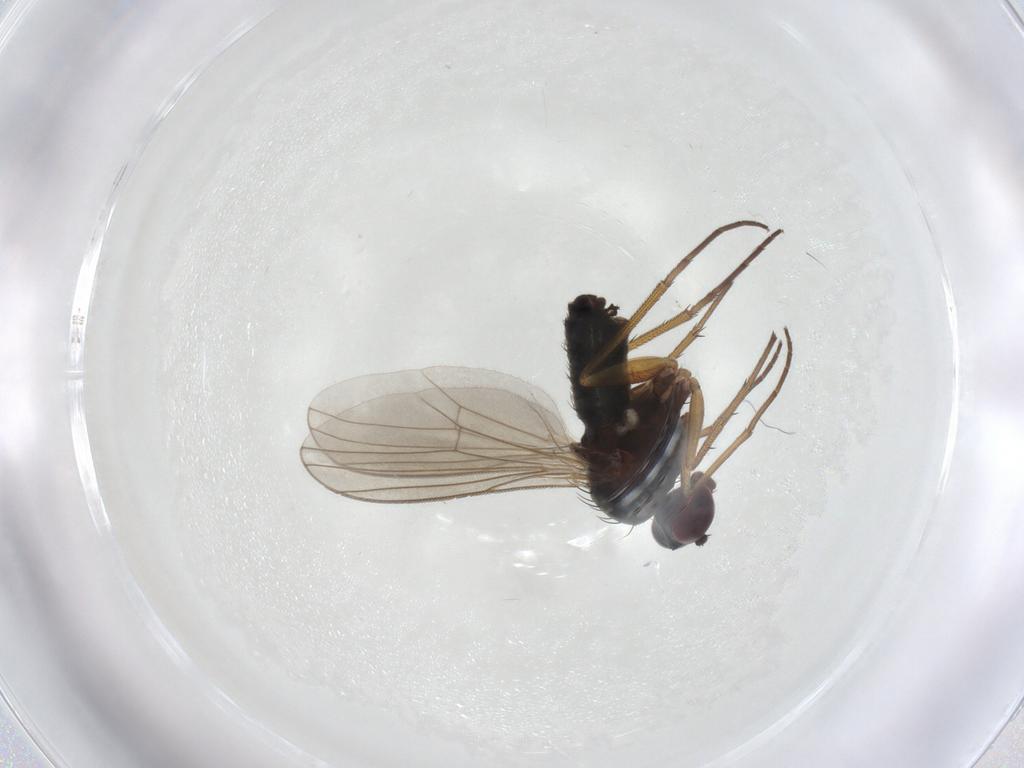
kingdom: Animalia
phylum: Arthropoda
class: Insecta
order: Diptera
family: Dolichopodidae
